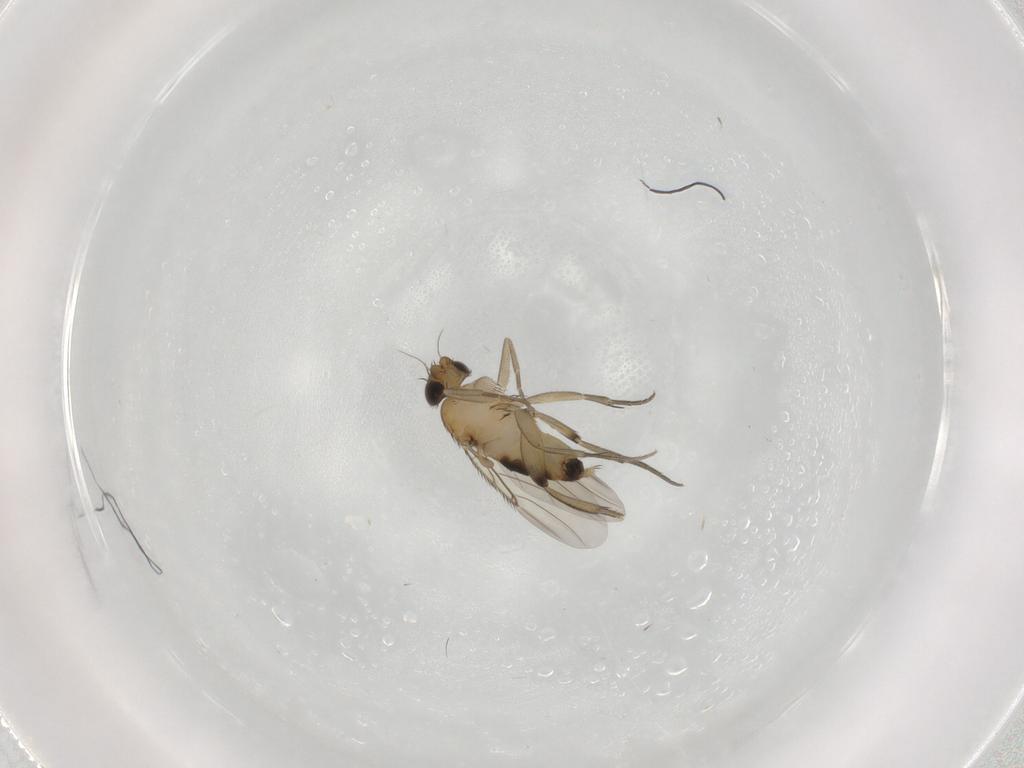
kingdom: Animalia
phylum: Arthropoda
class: Insecta
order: Diptera
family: Phoridae
